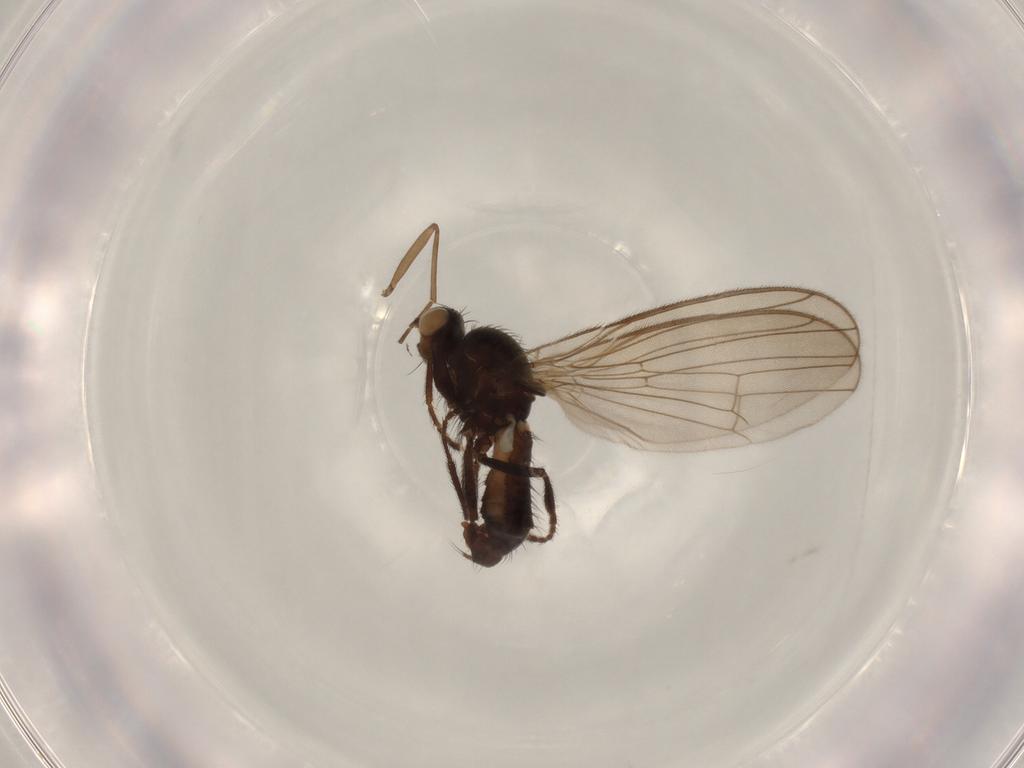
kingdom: Animalia
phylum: Arthropoda
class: Insecta
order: Diptera
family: Heleomyzidae
